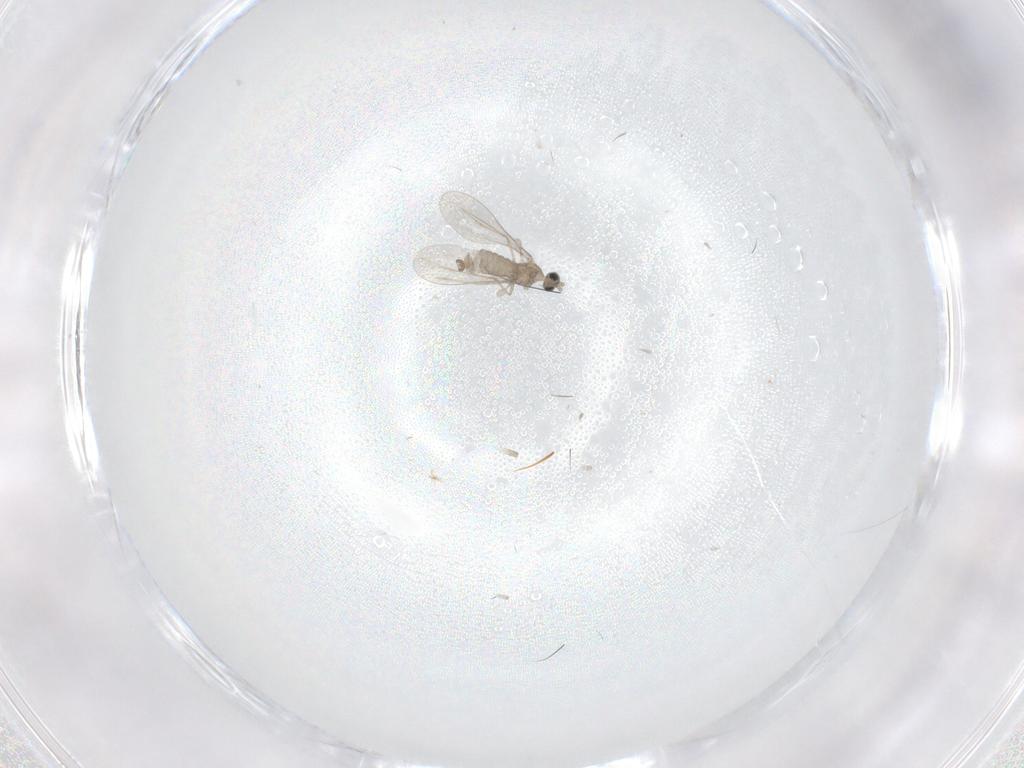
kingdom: Animalia
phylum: Arthropoda
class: Insecta
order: Diptera
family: Cecidomyiidae
